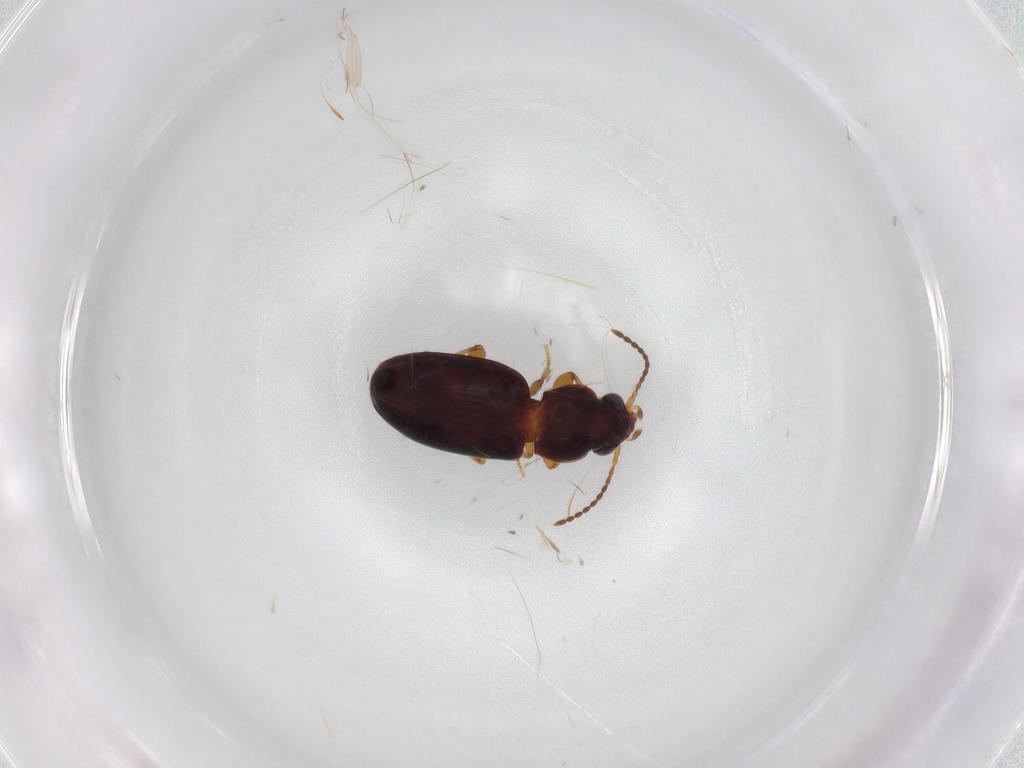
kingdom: Animalia
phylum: Arthropoda
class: Insecta
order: Coleoptera
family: Carabidae
